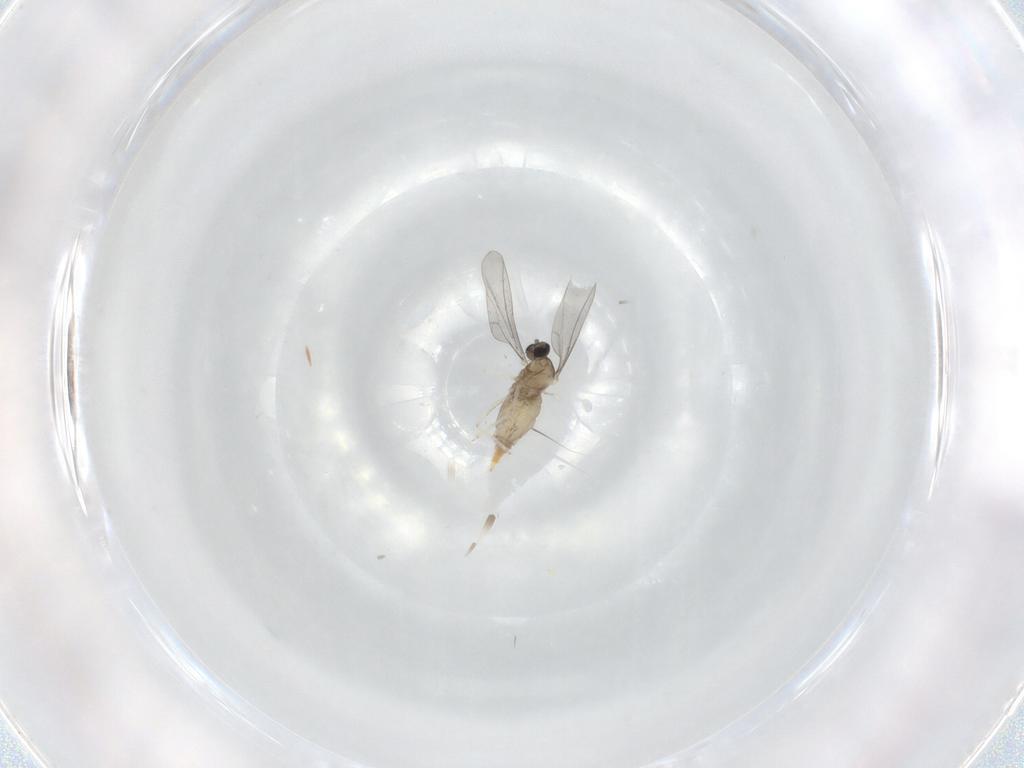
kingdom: Animalia
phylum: Arthropoda
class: Insecta
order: Diptera
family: Cecidomyiidae
